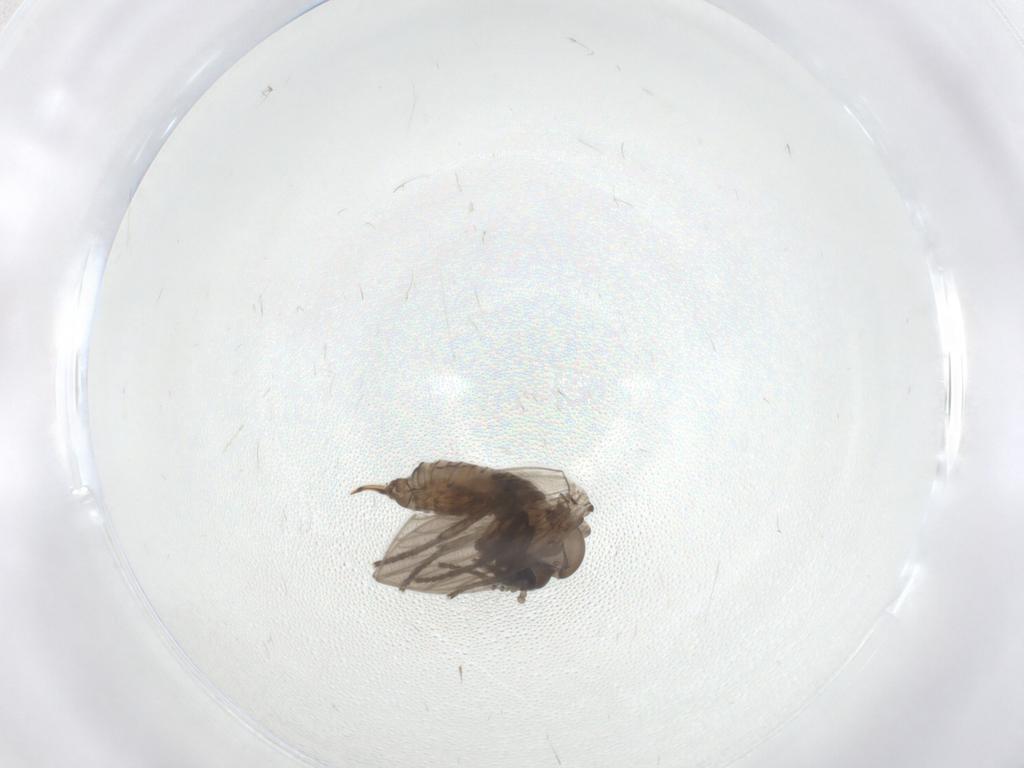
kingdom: Animalia
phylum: Arthropoda
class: Insecta
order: Diptera
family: Psychodidae
